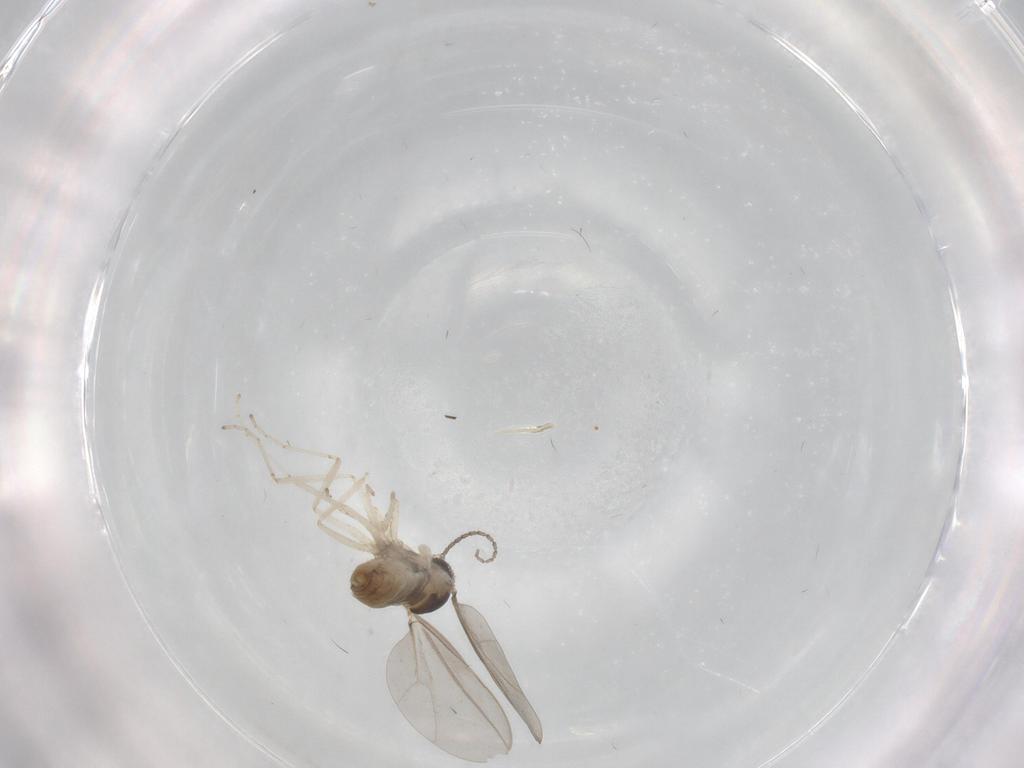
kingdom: Animalia
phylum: Arthropoda
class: Insecta
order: Diptera
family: Cecidomyiidae
